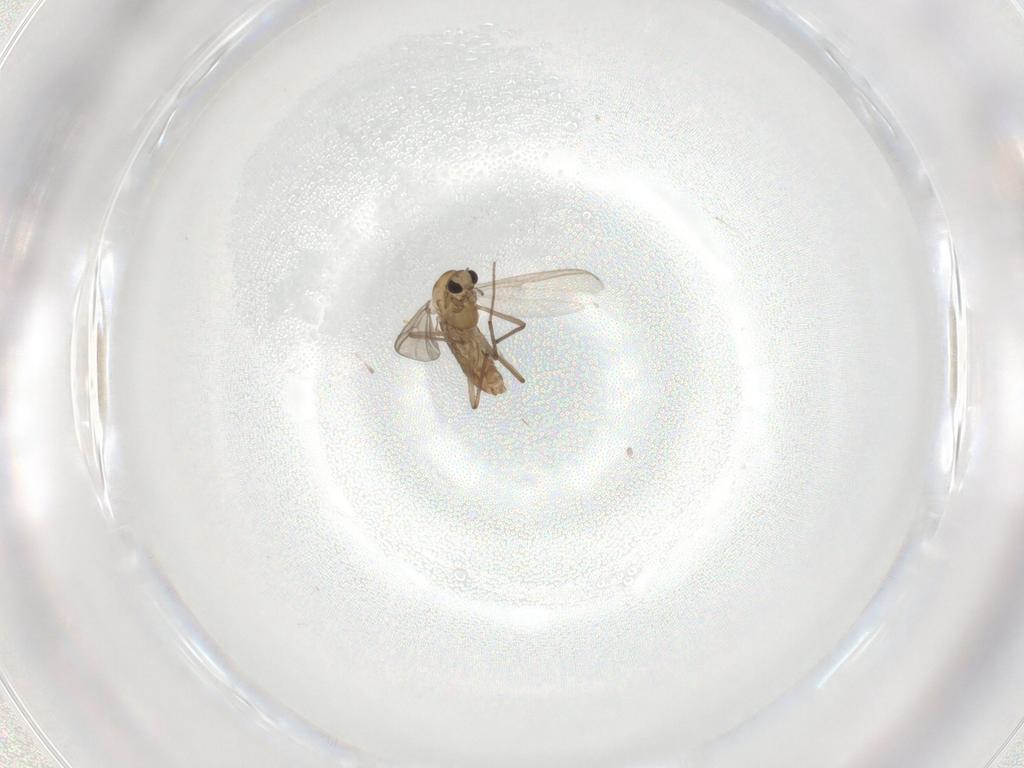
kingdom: Animalia
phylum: Arthropoda
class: Insecta
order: Diptera
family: Chironomidae
